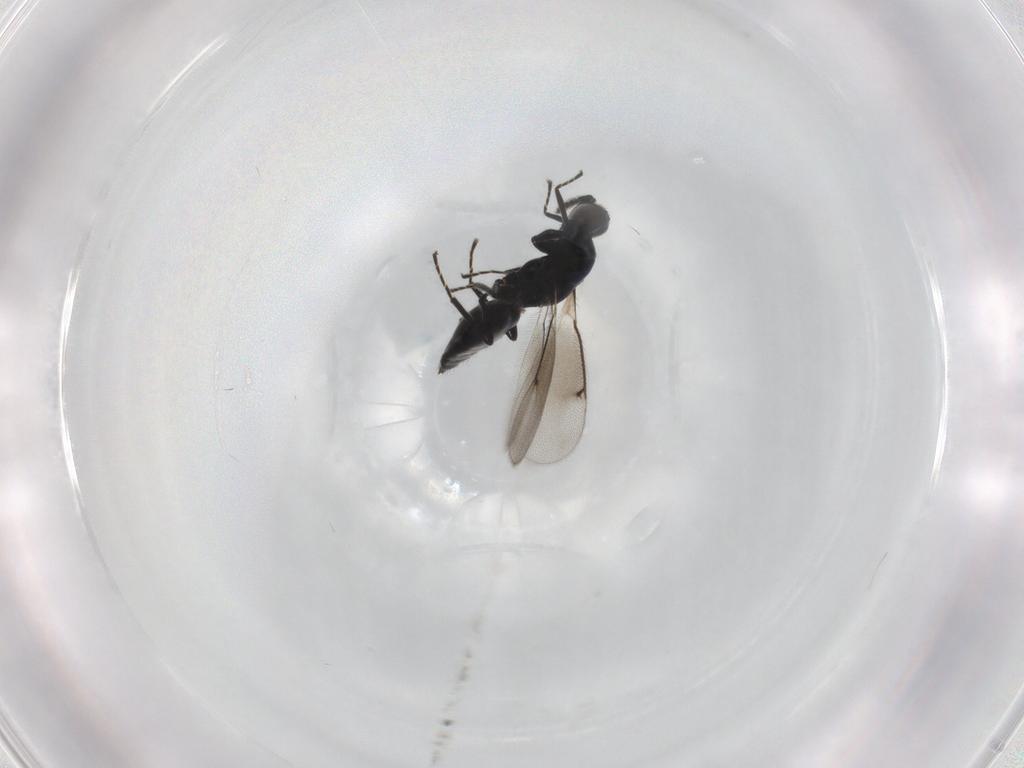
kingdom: Animalia
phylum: Arthropoda
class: Insecta
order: Hymenoptera
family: Eulophidae
